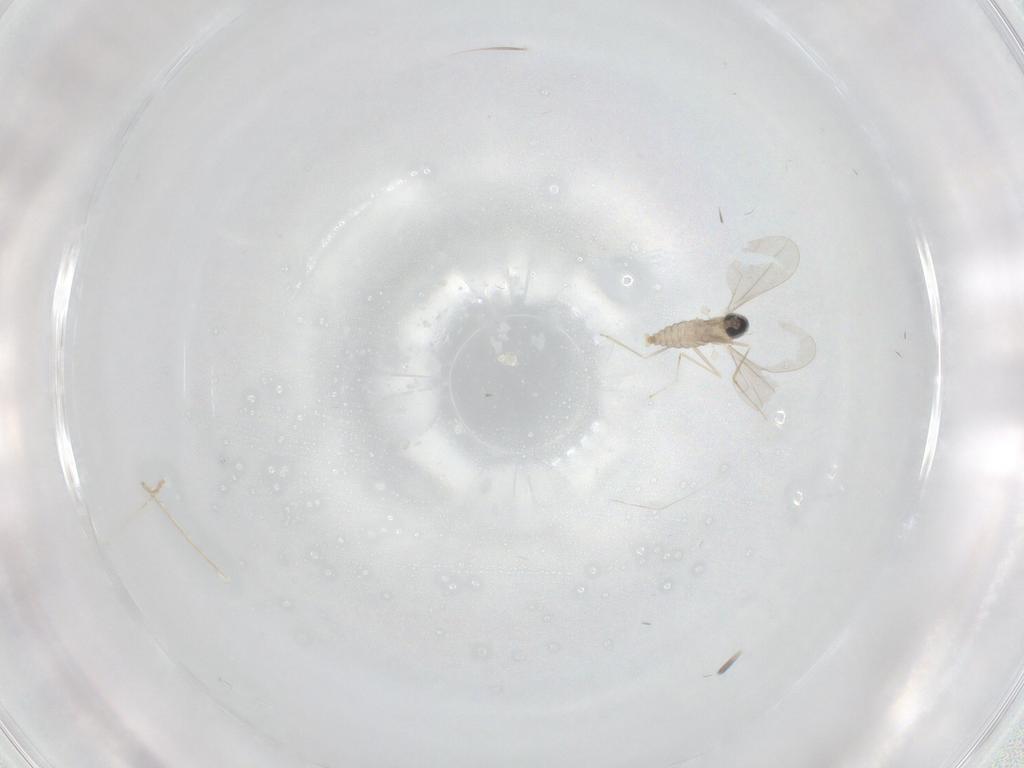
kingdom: Animalia
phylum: Arthropoda
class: Insecta
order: Diptera
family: Cecidomyiidae
